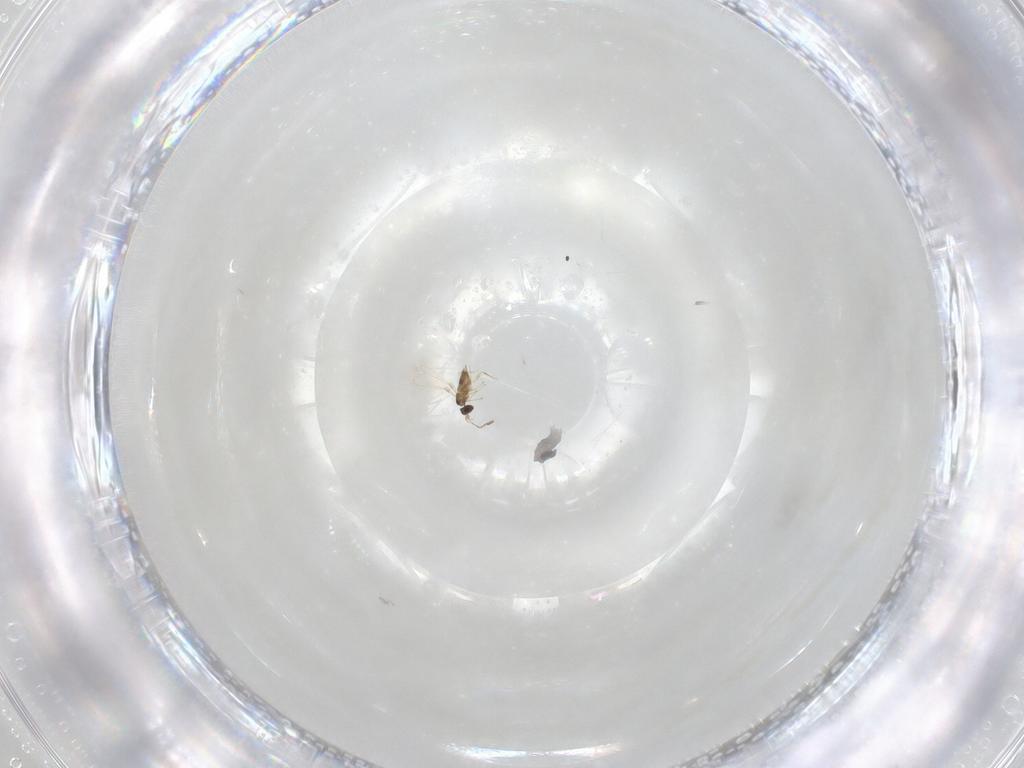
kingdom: Animalia
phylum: Arthropoda
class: Insecta
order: Hymenoptera
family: Mymaridae
